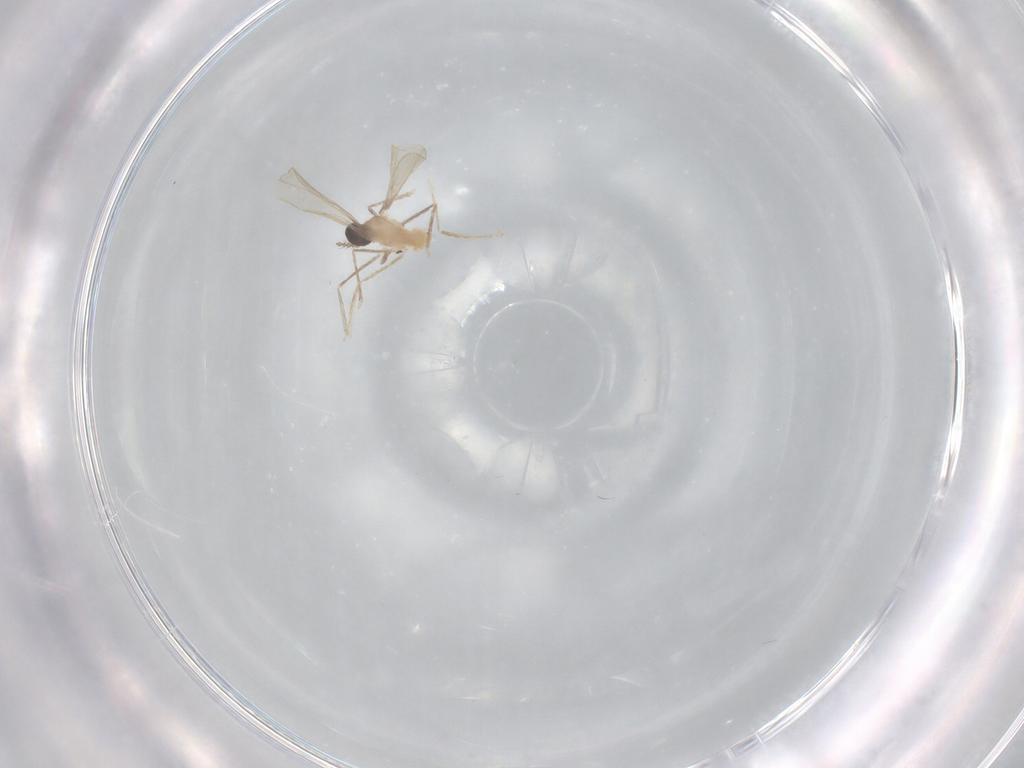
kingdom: Animalia
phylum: Arthropoda
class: Insecta
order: Diptera
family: Cecidomyiidae
